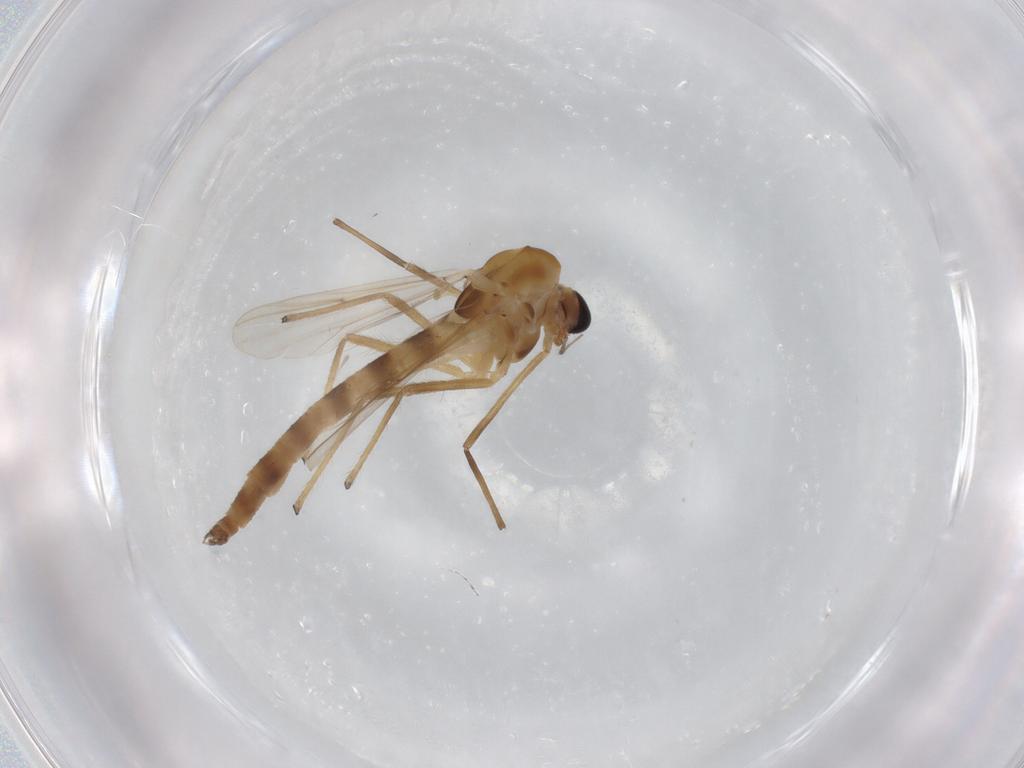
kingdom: Animalia
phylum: Arthropoda
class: Insecta
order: Diptera
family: Chironomidae
